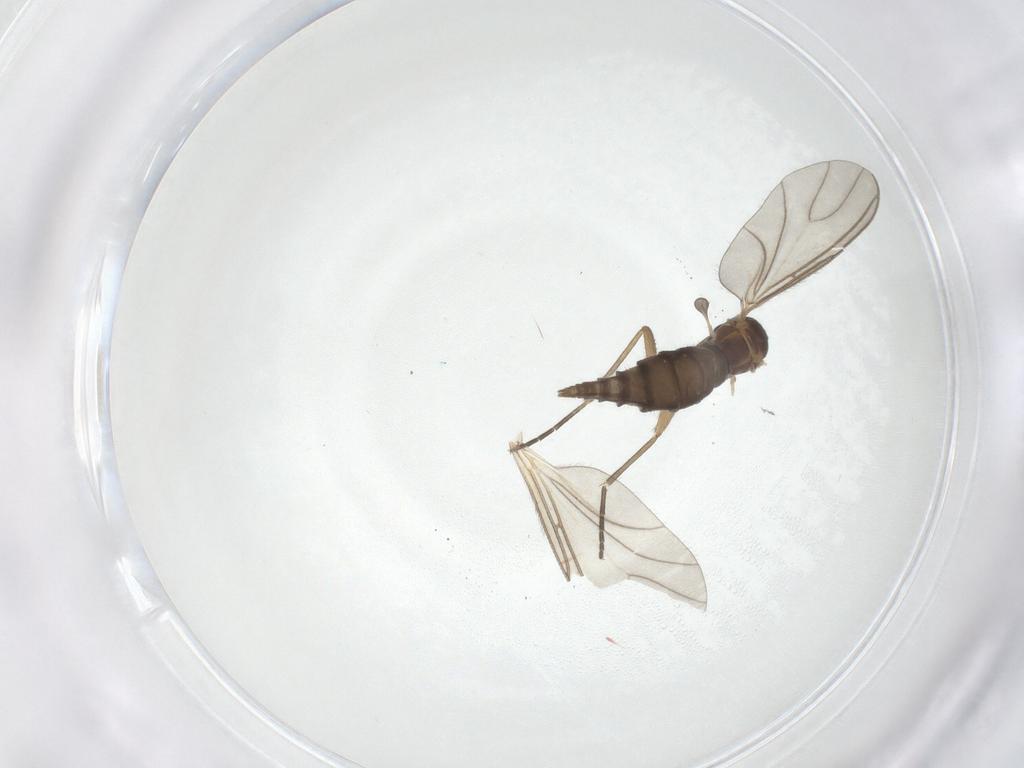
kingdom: Animalia
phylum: Arthropoda
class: Insecta
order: Diptera
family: Sciaridae
